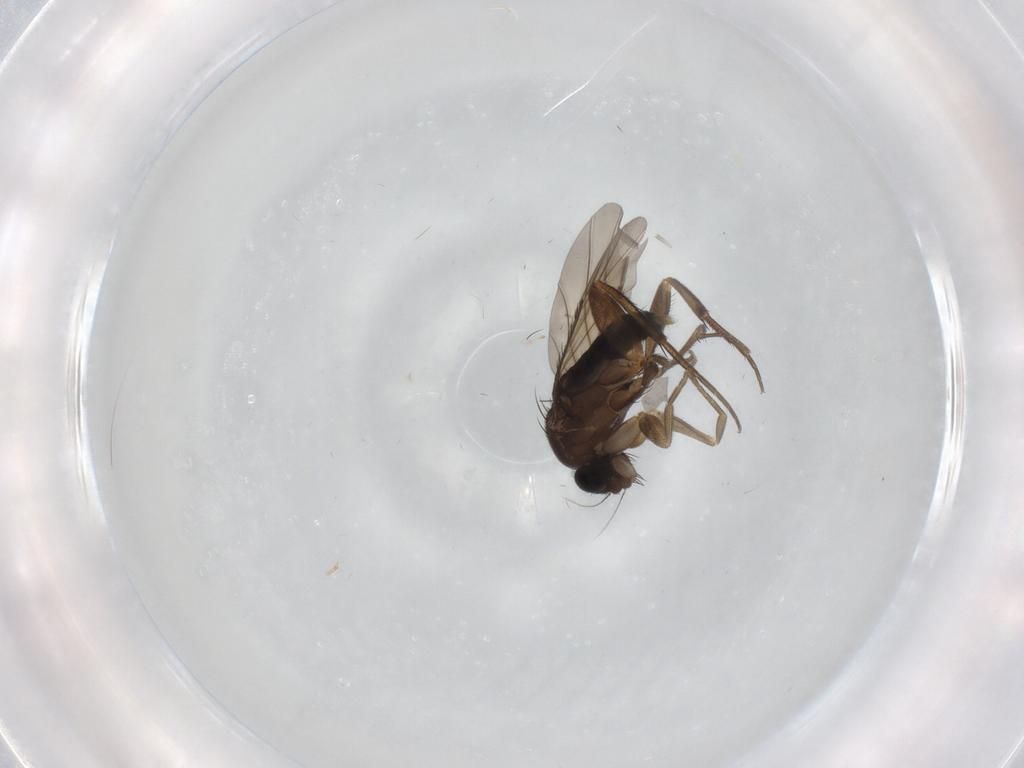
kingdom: Animalia
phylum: Arthropoda
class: Insecta
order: Diptera
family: Phoridae
